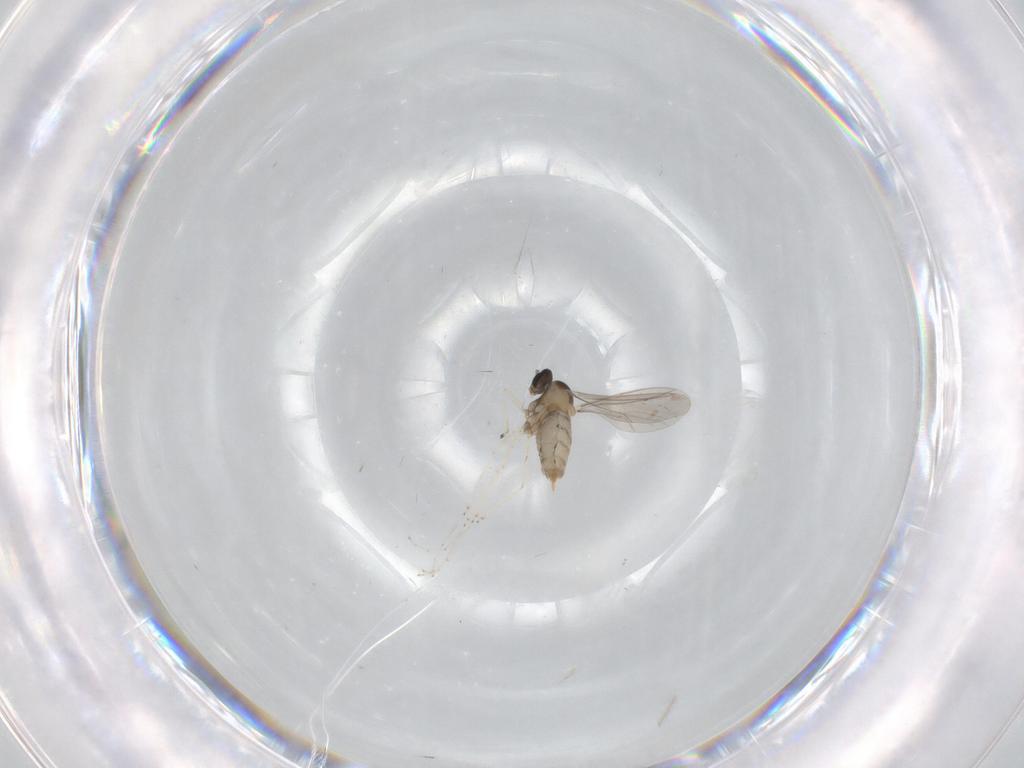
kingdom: Animalia
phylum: Arthropoda
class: Insecta
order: Diptera
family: Cecidomyiidae
